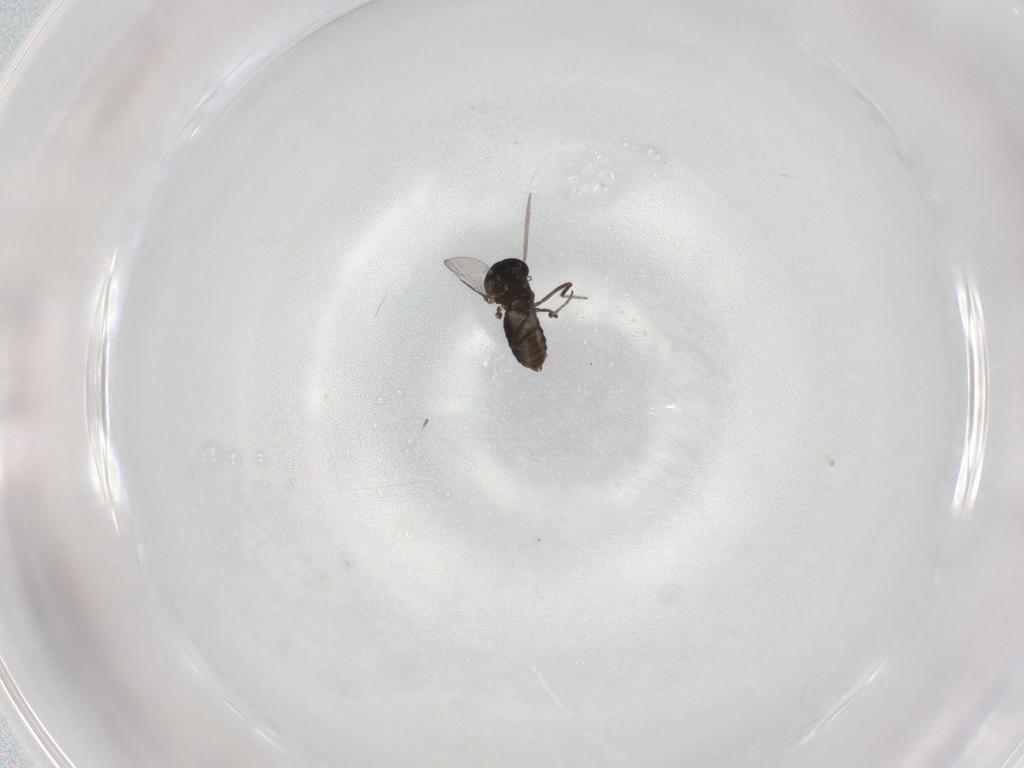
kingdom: Animalia
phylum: Arthropoda
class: Insecta
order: Diptera
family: Ceratopogonidae
